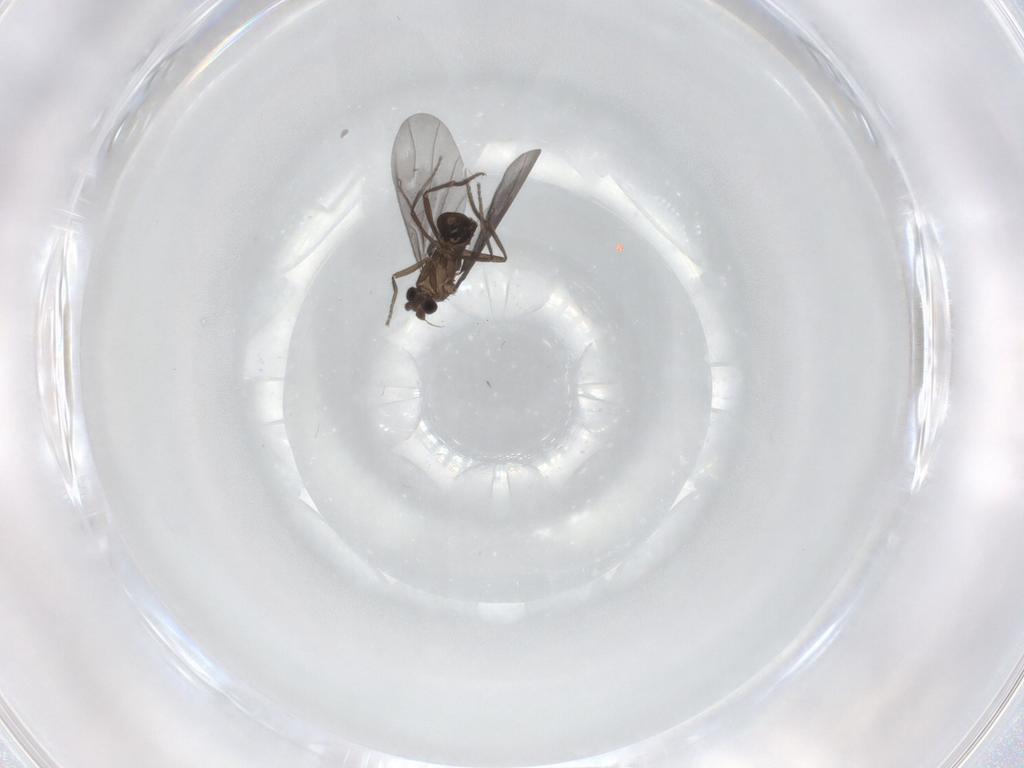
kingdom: Animalia
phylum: Arthropoda
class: Insecta
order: Diptera
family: Phoridae
